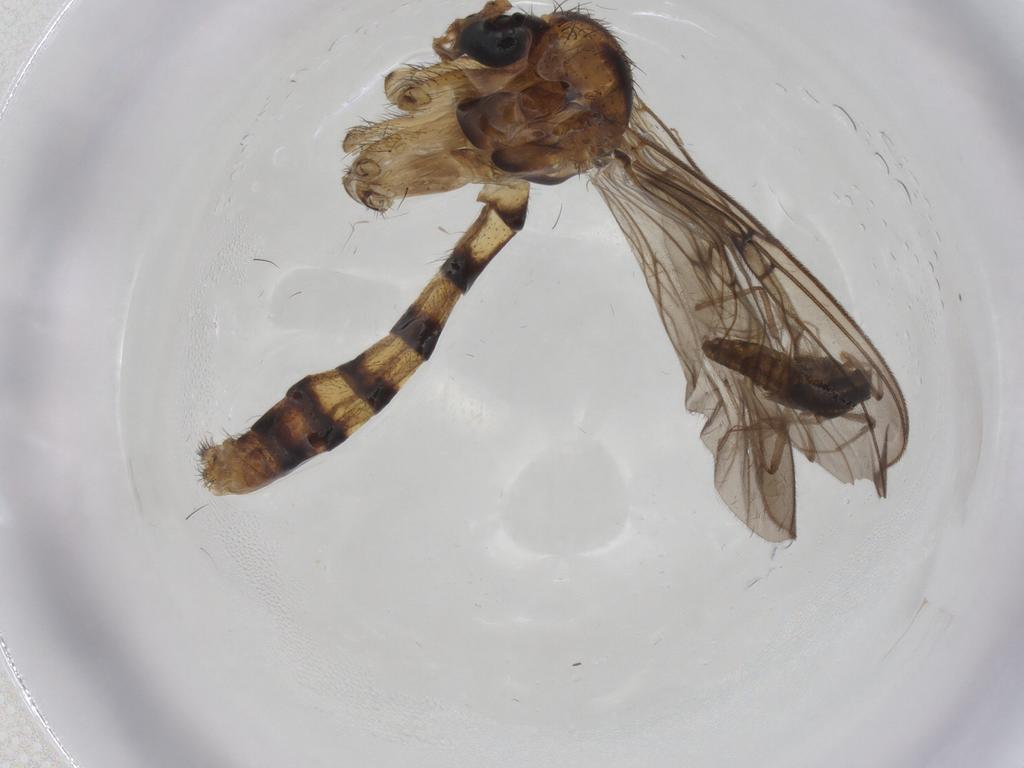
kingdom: Animalia
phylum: Arthropoda
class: Insecta
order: Diptera
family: Chironomidae
